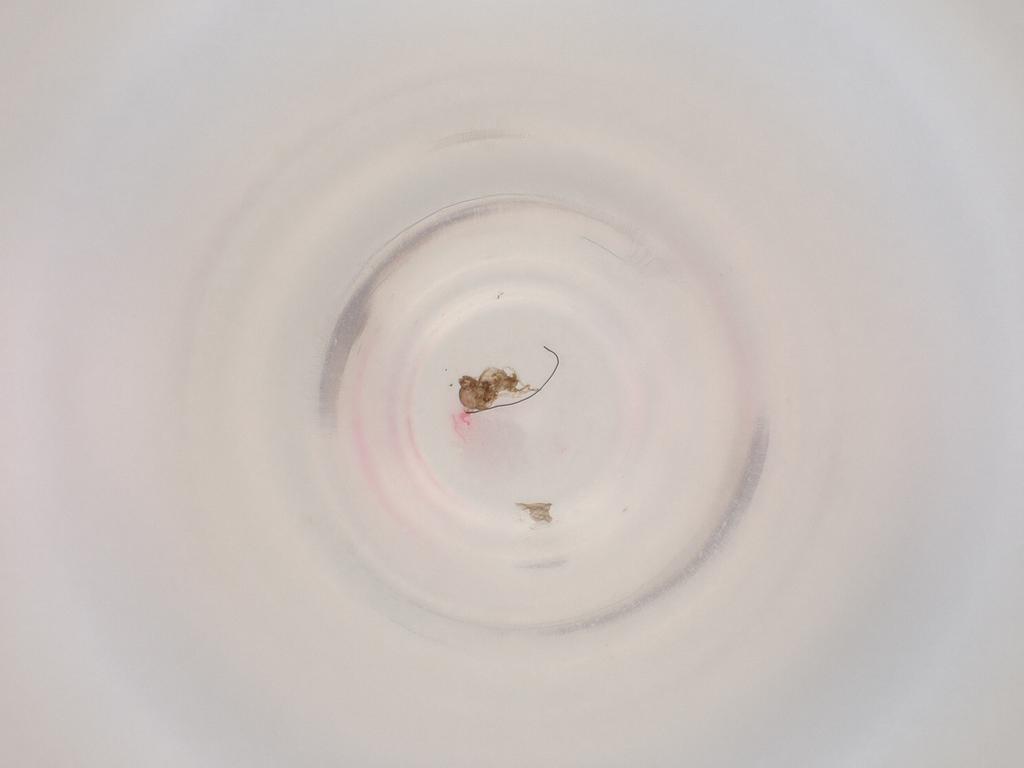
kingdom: Animalia
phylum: Arthropoda
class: Insecta
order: Diptera
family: Cecidomyiidae
